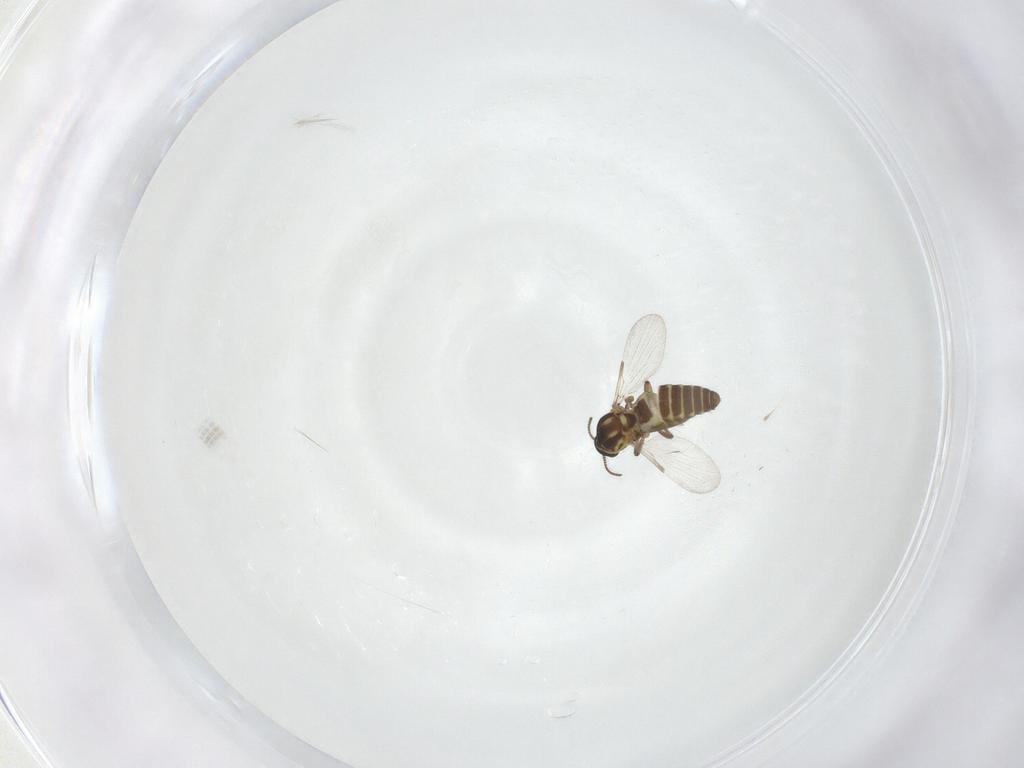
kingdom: Animalia
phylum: Arthropoda
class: Insecta
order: Diptera
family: Ceratopogonidae
